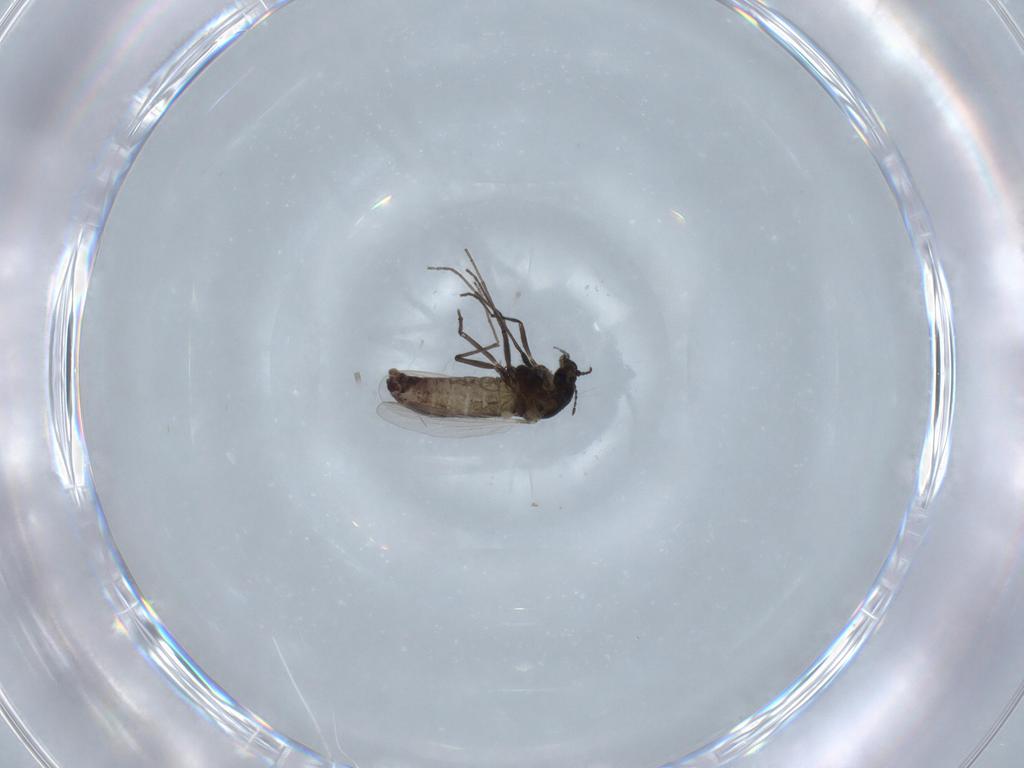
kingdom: Animalia
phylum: Arthropoda
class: Insecta
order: Diptera
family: Chironomidae
